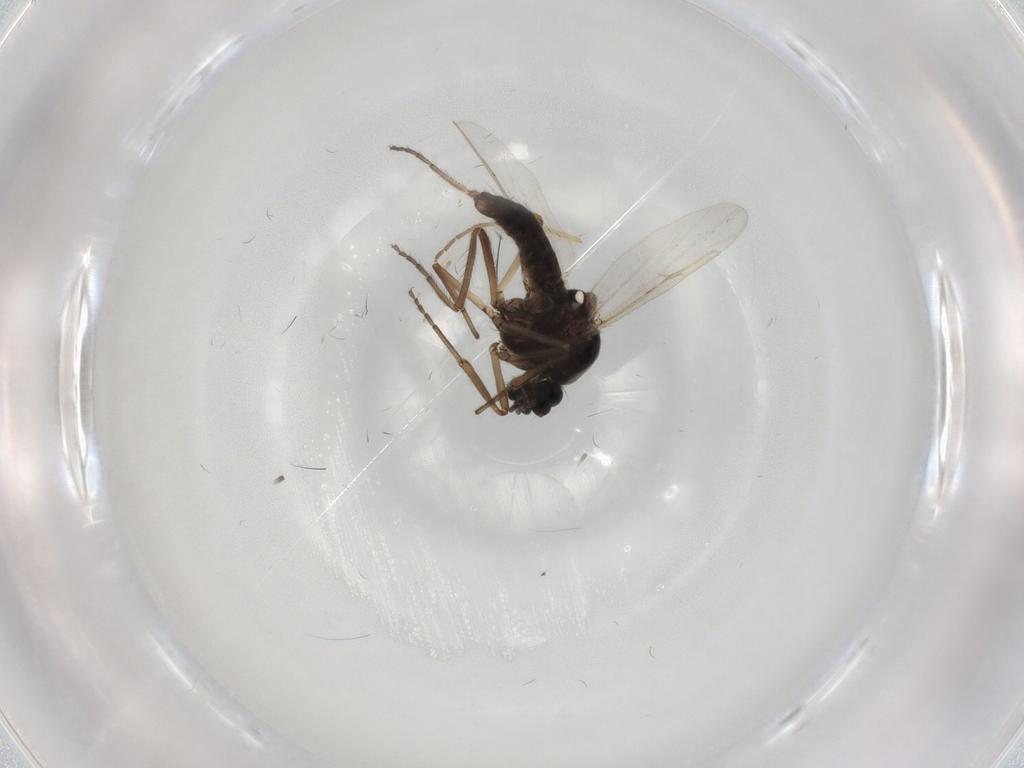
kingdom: Animalia
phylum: Arthropoda
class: Insecta
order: Diptera
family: Ceratopogonidae
